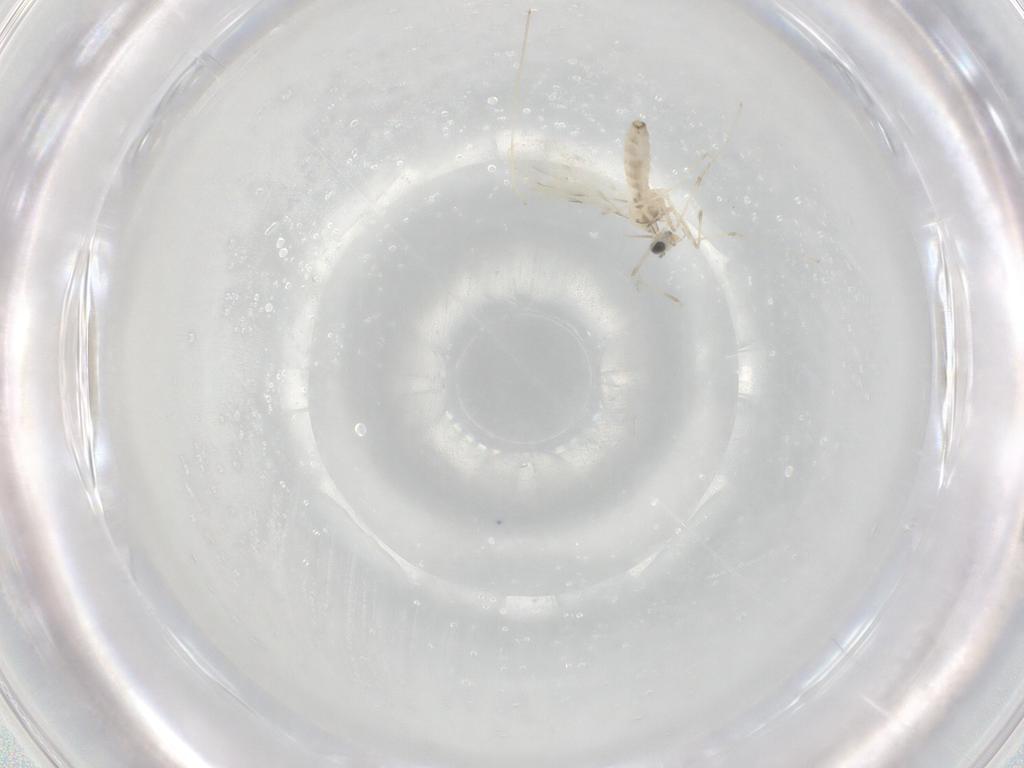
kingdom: Animalia
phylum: Arthropoda
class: Insecta
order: Diptera
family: Cecidomyiidae
